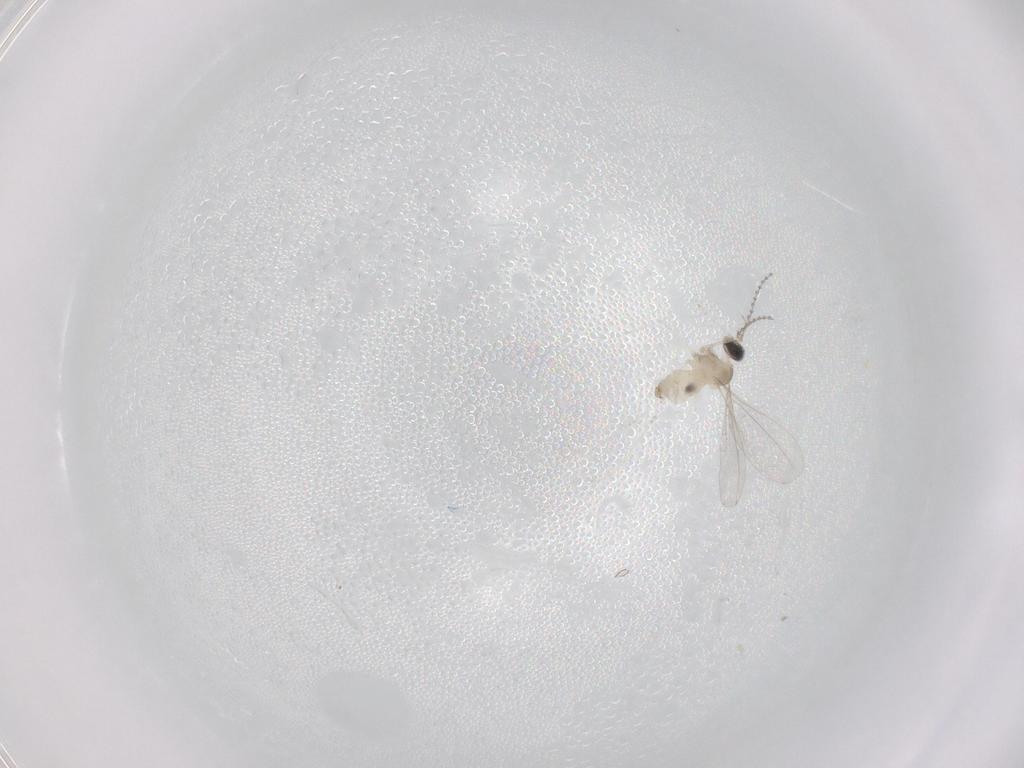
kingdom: Animalia
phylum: Arthropoda
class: Insecta
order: Diptera
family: Cecidomyiidae
